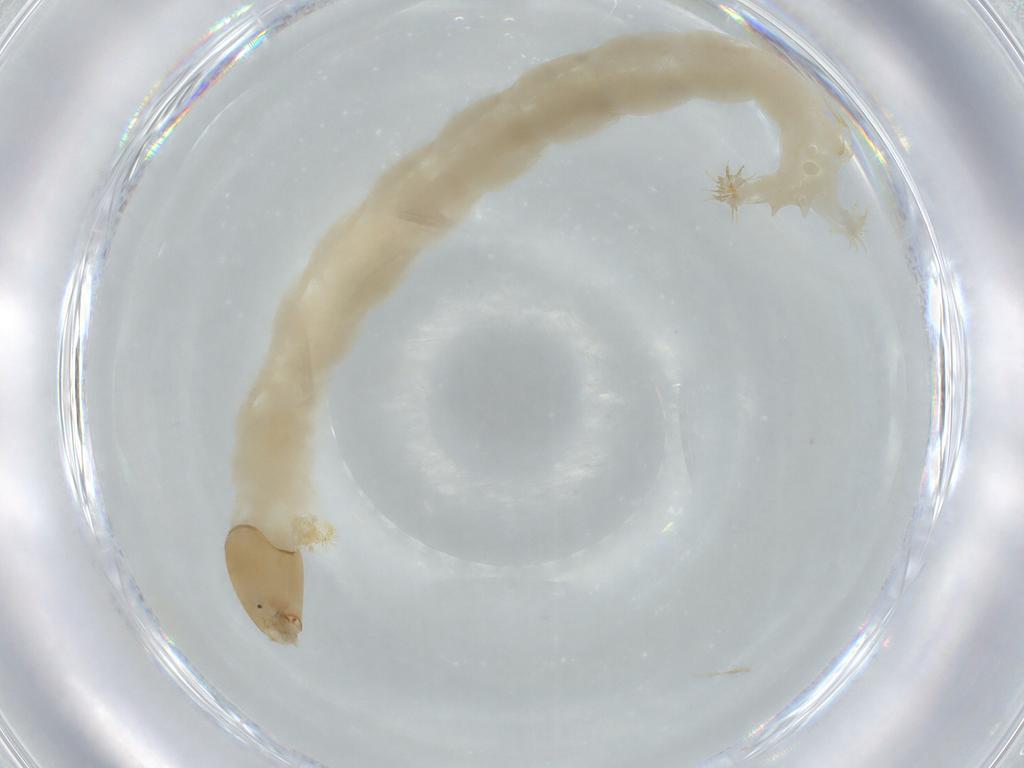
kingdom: Animalia
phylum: Arthropoda
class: Insecta
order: Diptera
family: Chironomidae
